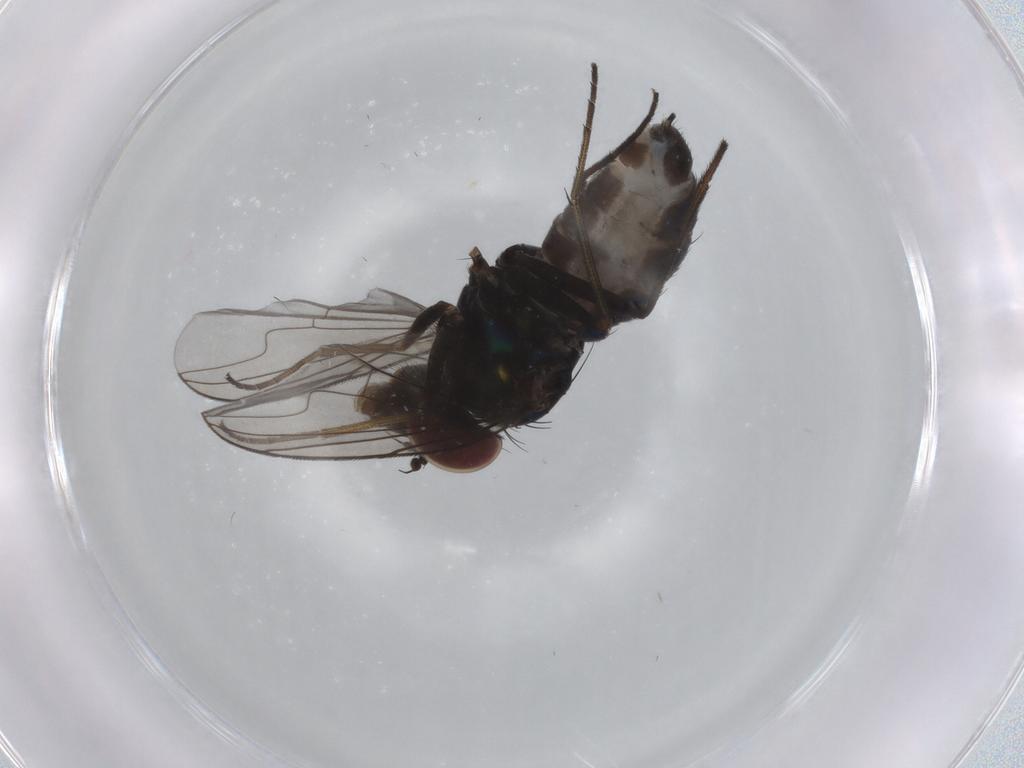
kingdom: Animalia
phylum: Arthropoda
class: Insecta
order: Diptera
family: Dolichopodidae
